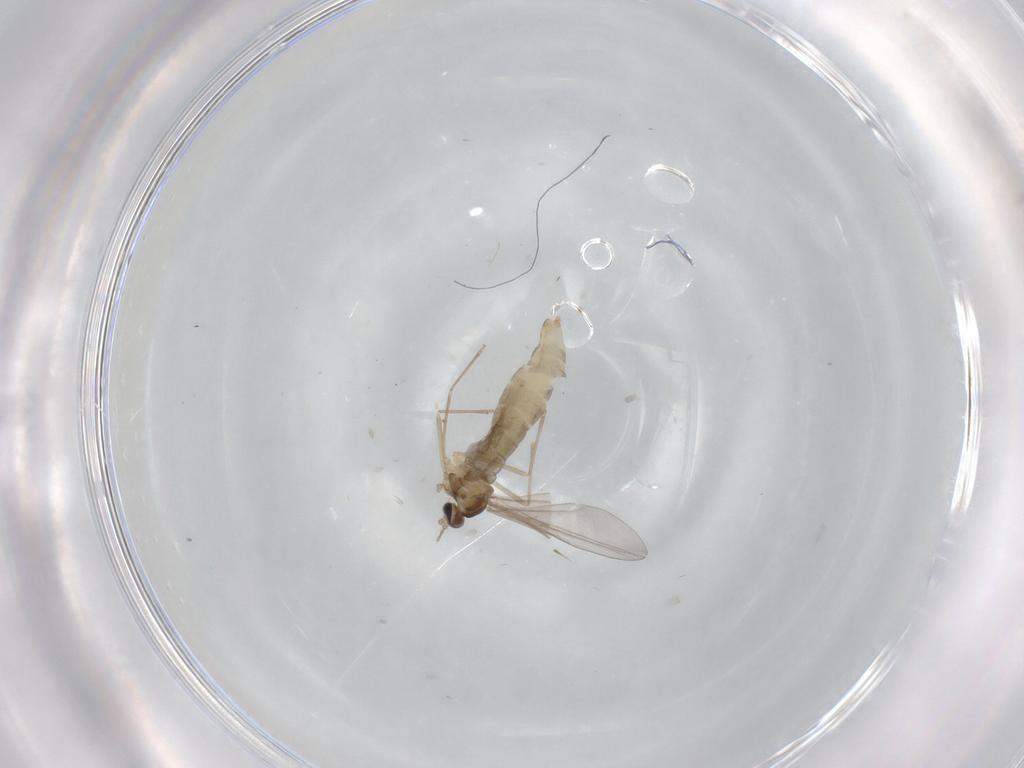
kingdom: Animalia
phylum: Arthropoda
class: Insecta
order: Diptera
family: Cecidomyiidae
